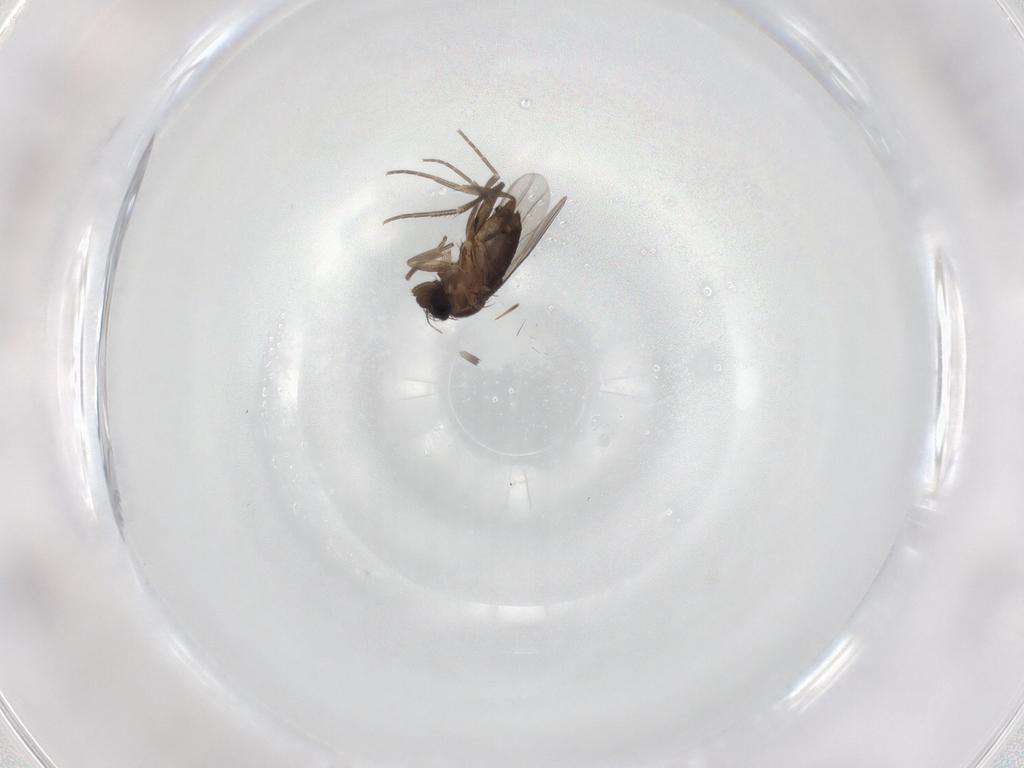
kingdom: Animalia
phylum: Arthropoda
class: Insecta
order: Diptera
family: Phoridae
